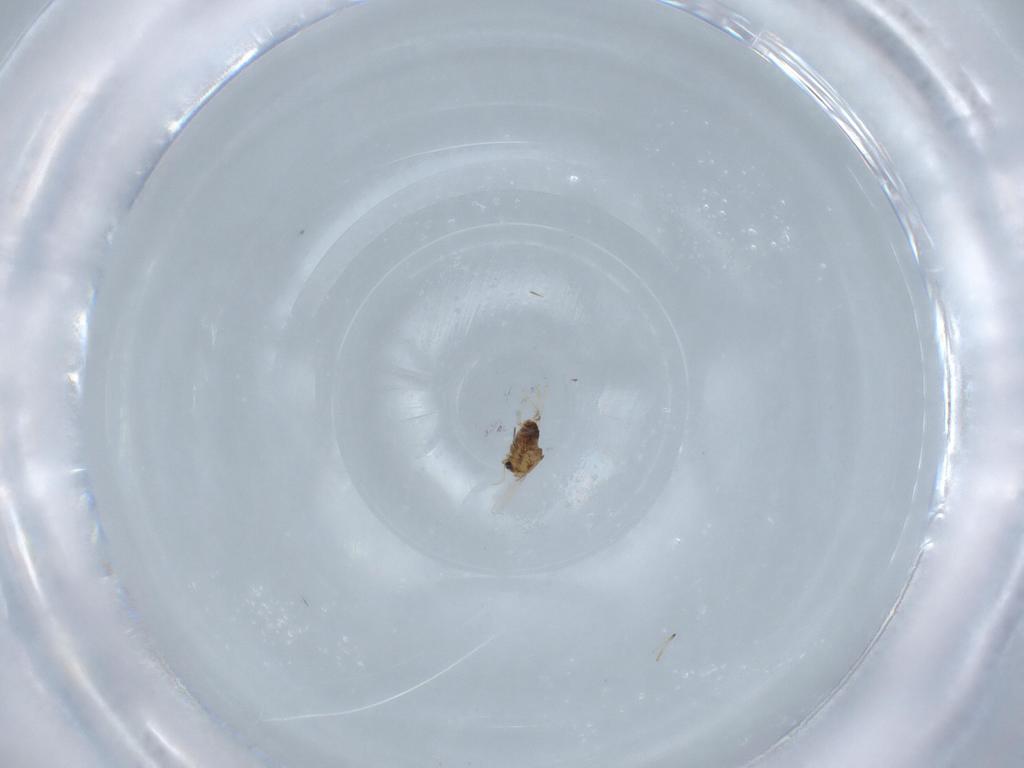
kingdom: Animalia
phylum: Arthropoda
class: Insecta
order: Diptera
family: Chironomidae
